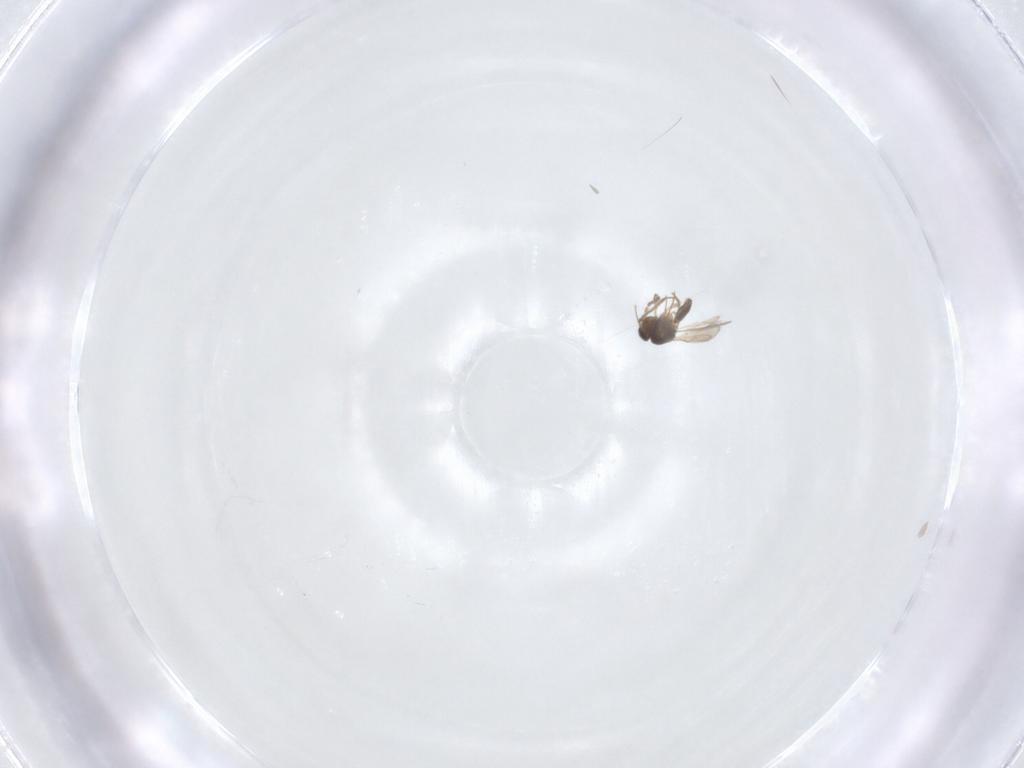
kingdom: Animalia
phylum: Arthropoda
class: Insecta
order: Hymenoptera
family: Scelionidae
